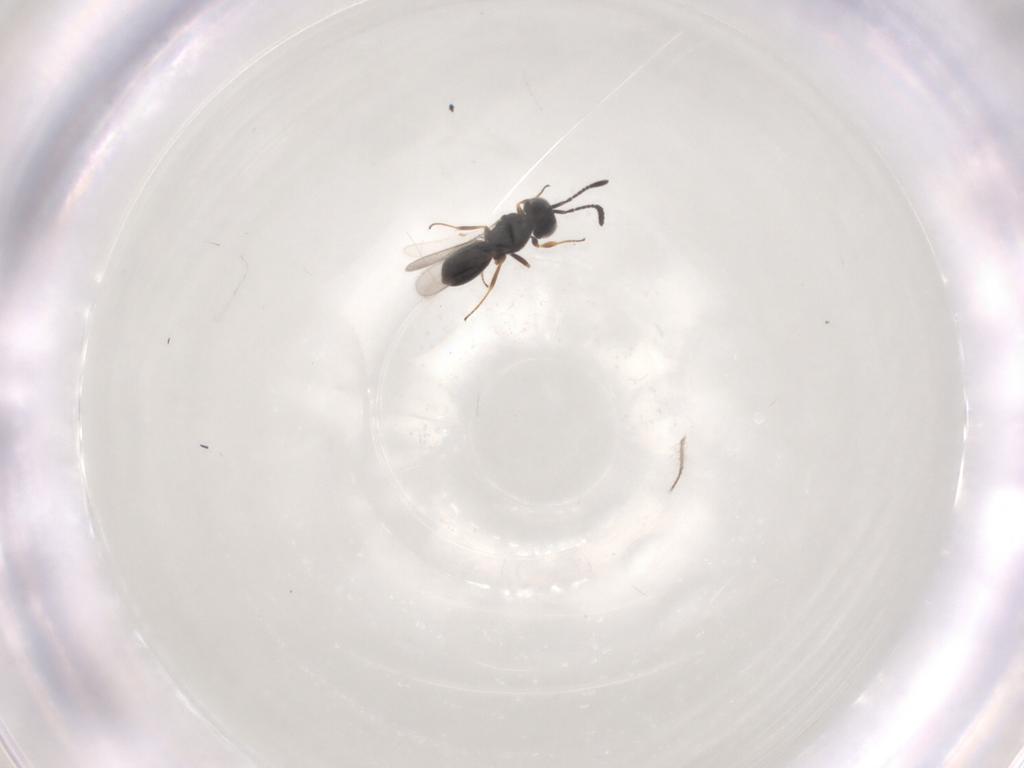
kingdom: Animalia
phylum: Arthropoda
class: Insecta
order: Hymenoptera
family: Scelionidae
